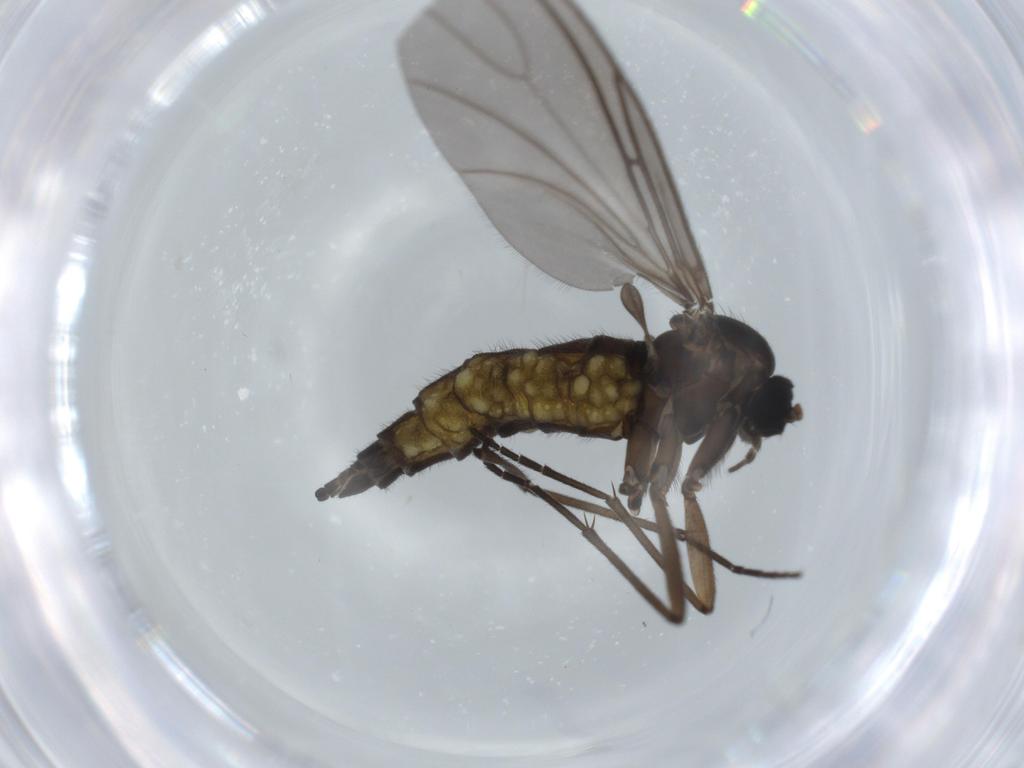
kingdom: Animalia
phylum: Arthropoda
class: Insecta
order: Diptera
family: Sciaridae
